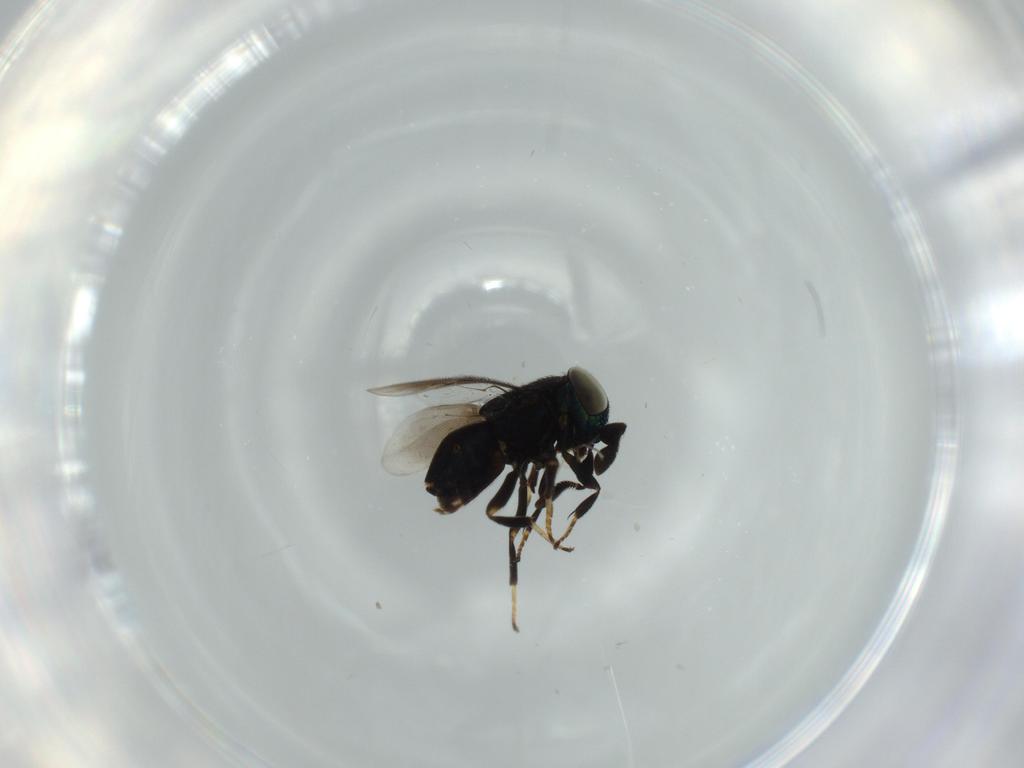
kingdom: Animalia
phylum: Arthropoda
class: Insecta
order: Hymenoptera
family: Encyrtidae
